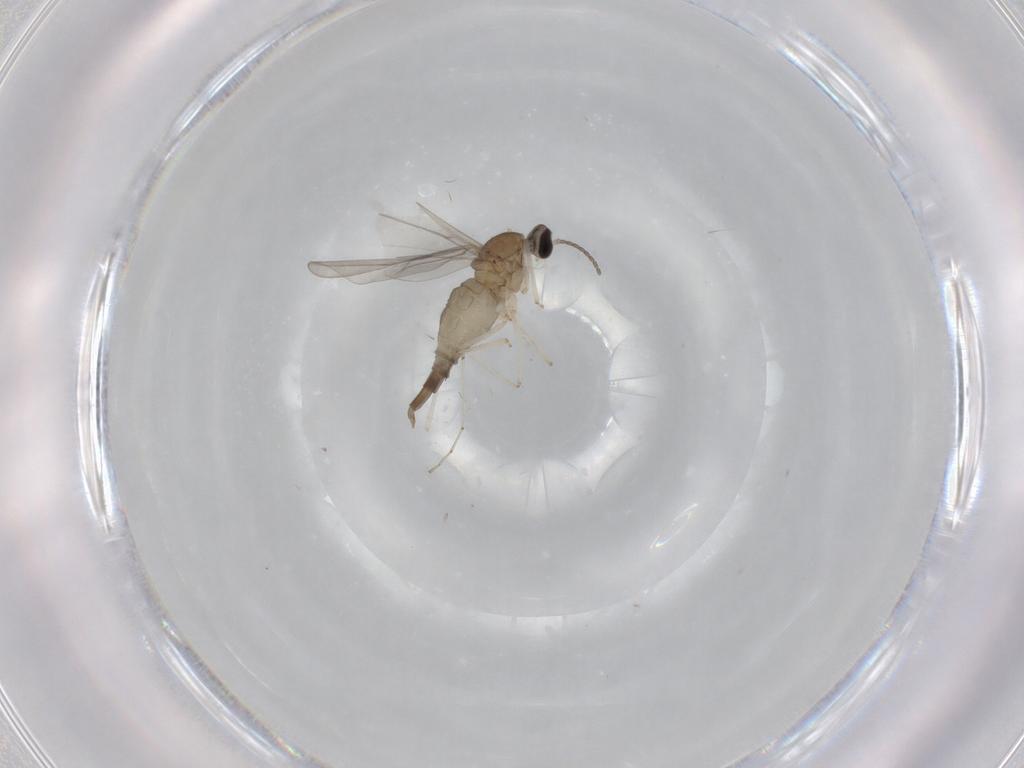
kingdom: Animalia
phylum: Arthropoda
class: Insecta
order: Diptera
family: Cecidomyiidae
